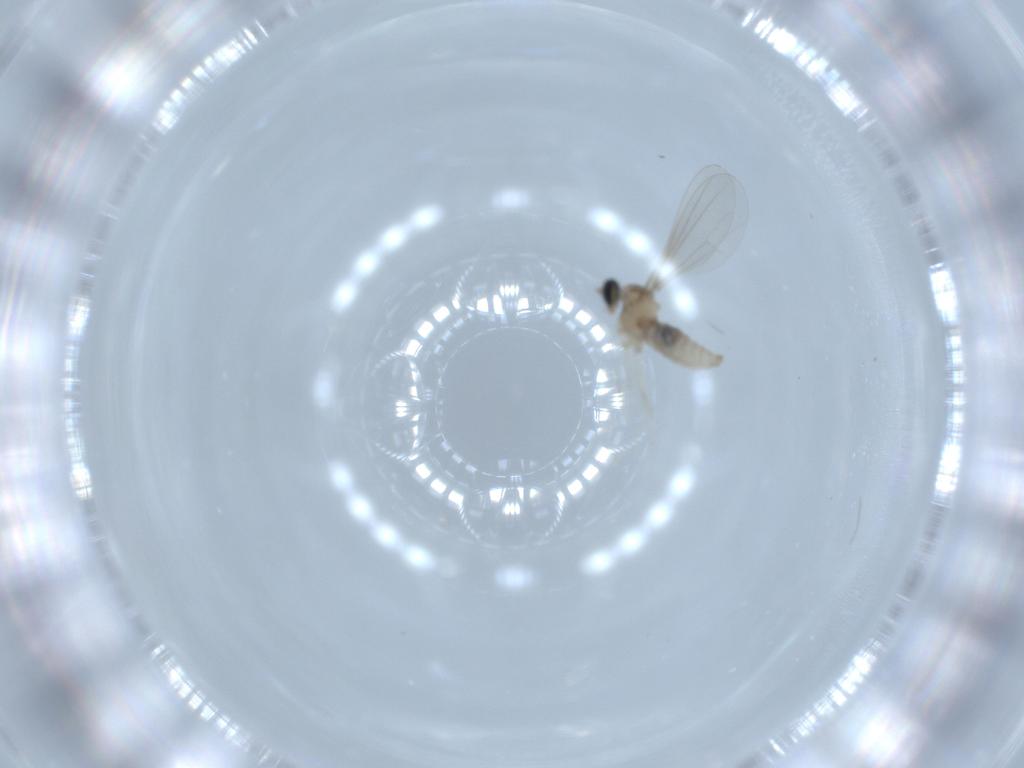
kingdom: Animalia
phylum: Arthropoda
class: Insecta
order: Diptera
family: Cecidomyiidae
